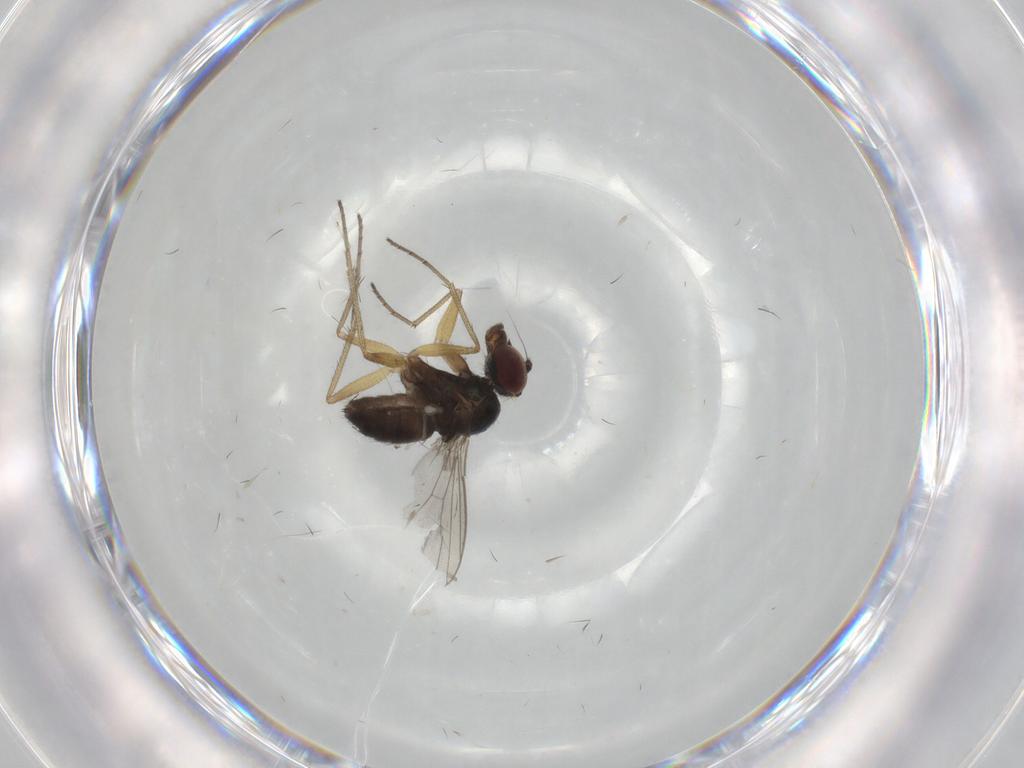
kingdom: Animalia
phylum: Arthropoda
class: Insecta
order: Diptera
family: Dolichopodidae
